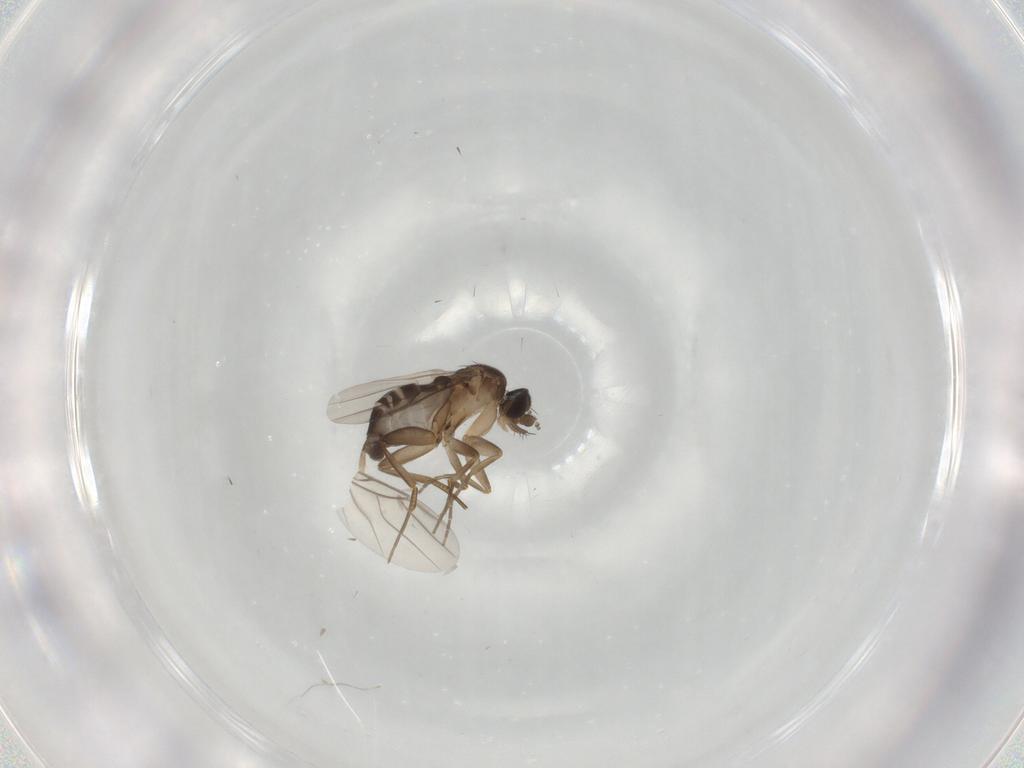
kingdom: Animalia
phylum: Arthropoda
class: Insecta
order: Diptera
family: Phoridae
